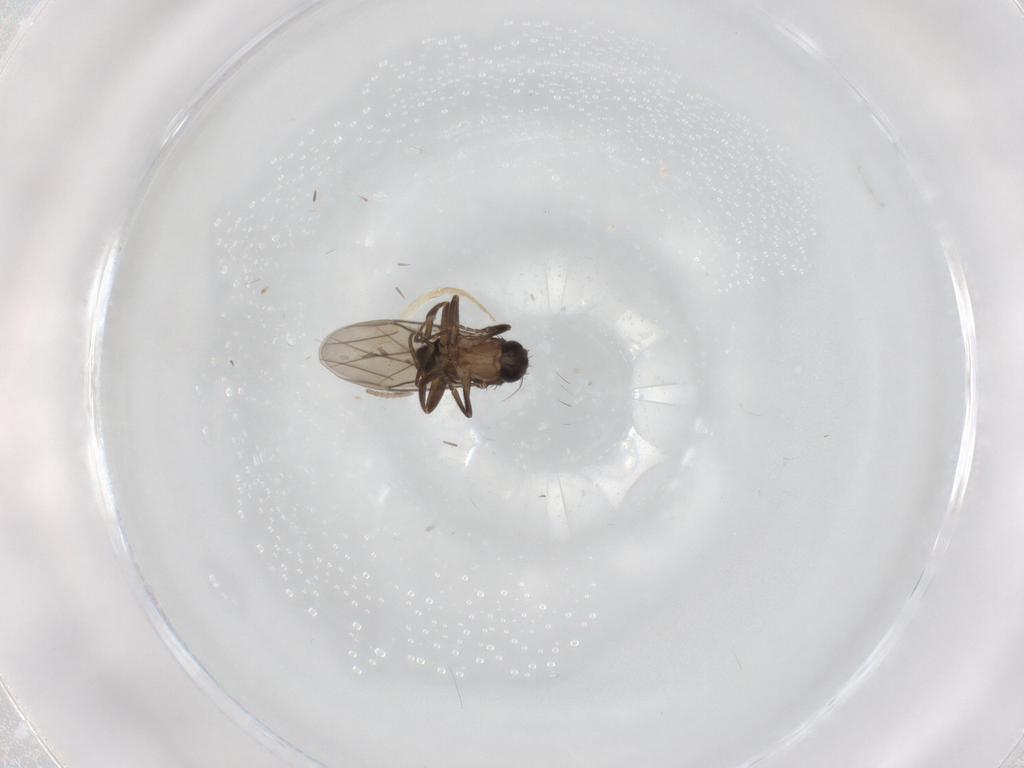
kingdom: Animalia
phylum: Arthropoda
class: Insecta
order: Diptera
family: Phoridae
